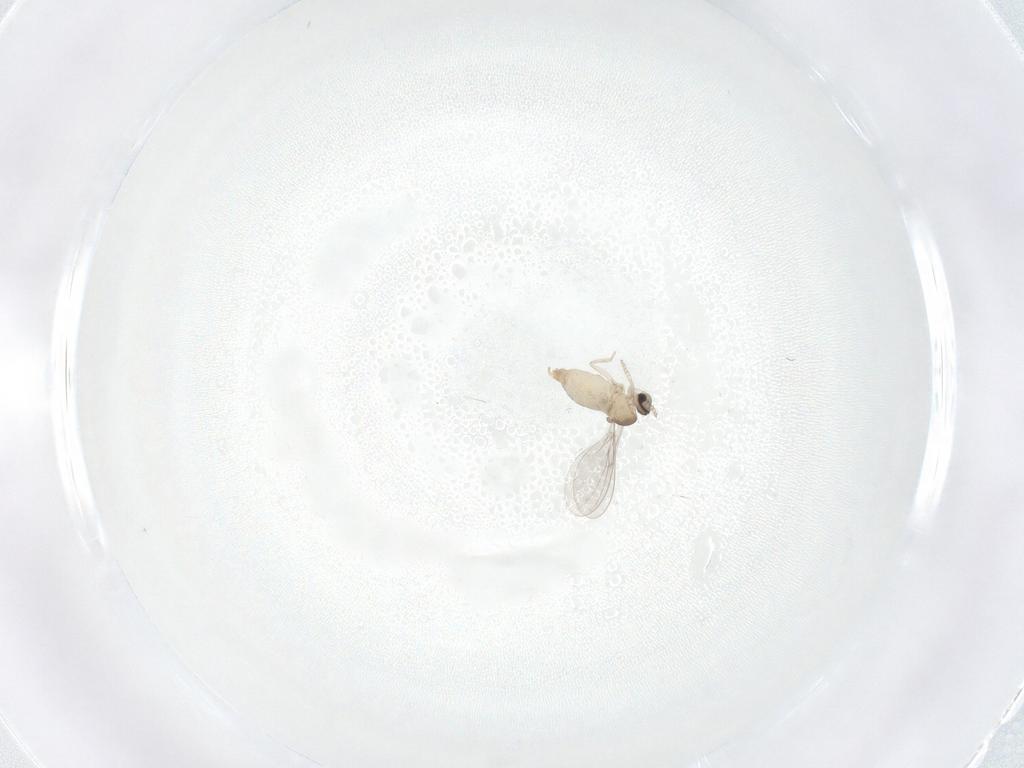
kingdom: Animalia
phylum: Arthropoda
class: Insecta
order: Diptera
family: Cecidomyiidae
